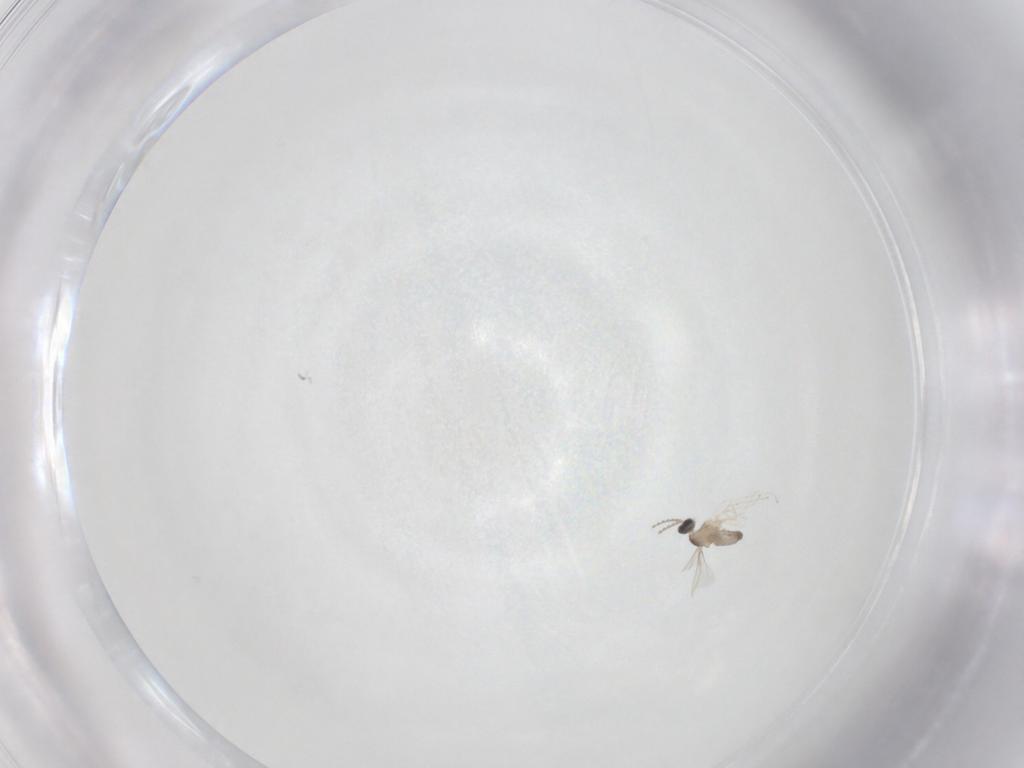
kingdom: Animalia
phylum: Arthropoda
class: Insecta
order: Diptera
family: Cecidomyiidae
